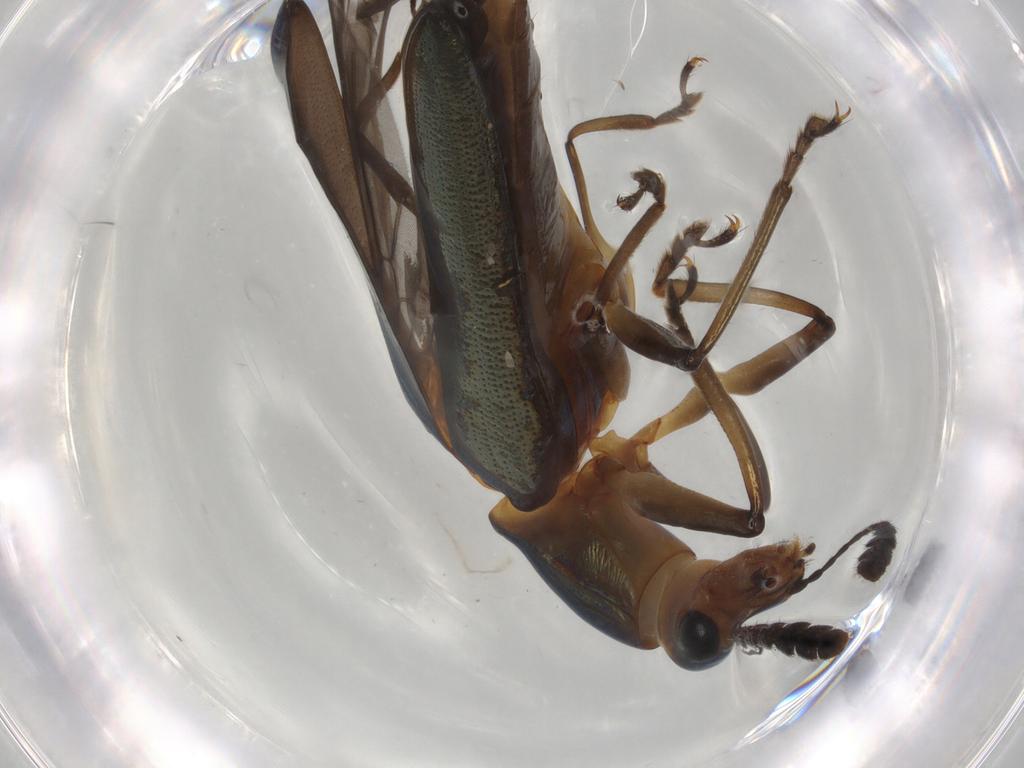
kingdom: Animalia
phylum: Arthropoda
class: Insecta
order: Coleoptera
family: Erotylidae
